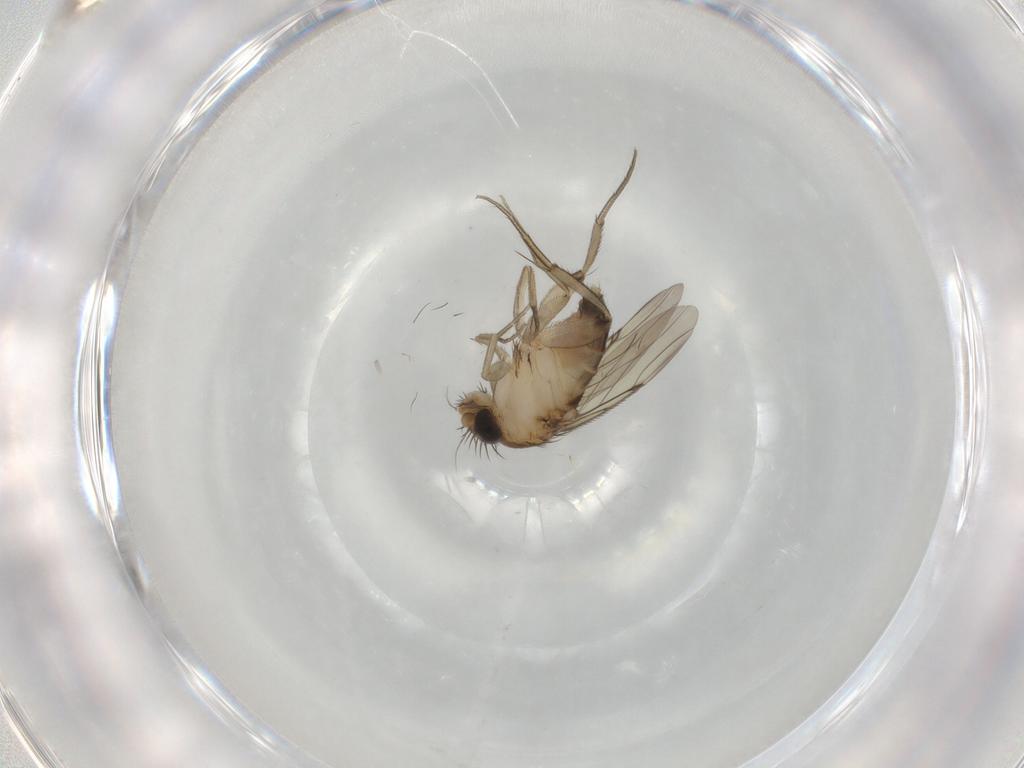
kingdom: Animalia
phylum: Arthropoda
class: Insecta
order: Diptera
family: Phoridae
